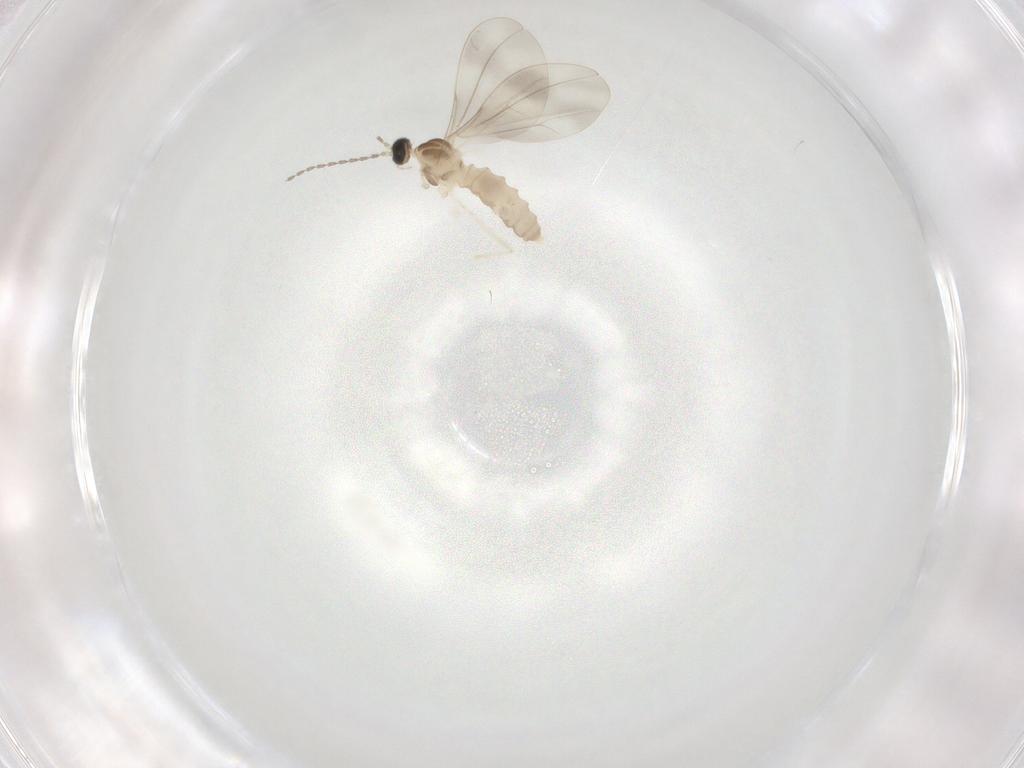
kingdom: Animalia
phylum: Arthropoda
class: Insecta
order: Diptera
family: Cecidomyiidae
